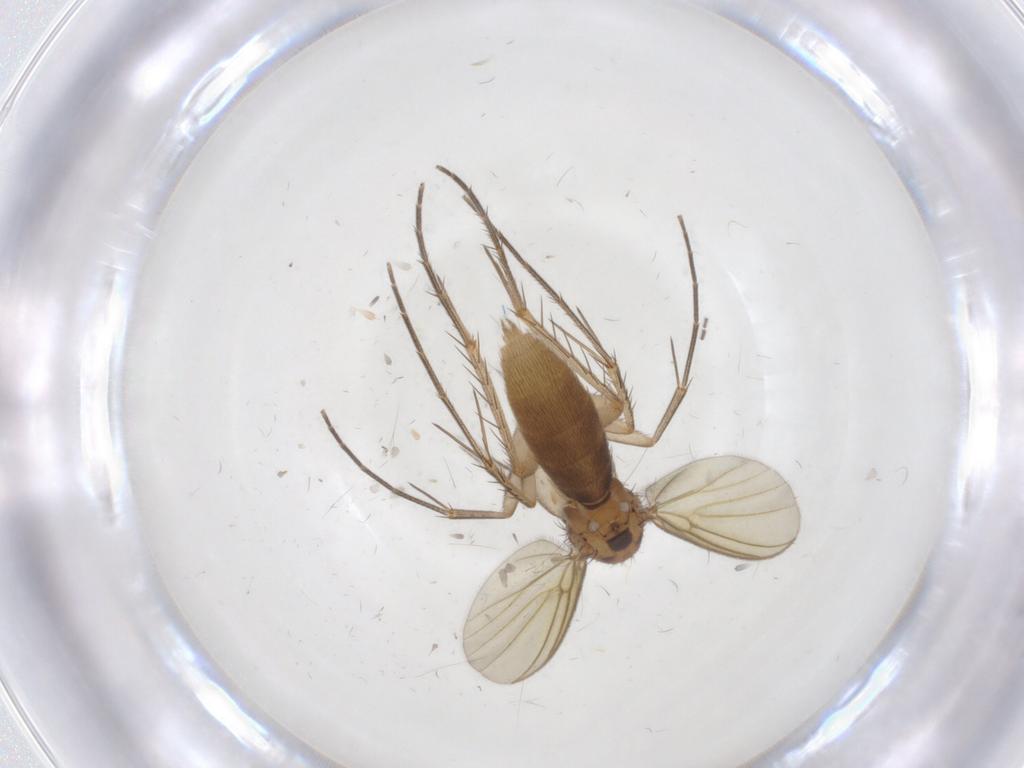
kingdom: Animalia
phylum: Arthropoda
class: Insecta
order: Diptera
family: Mycetophilidae
